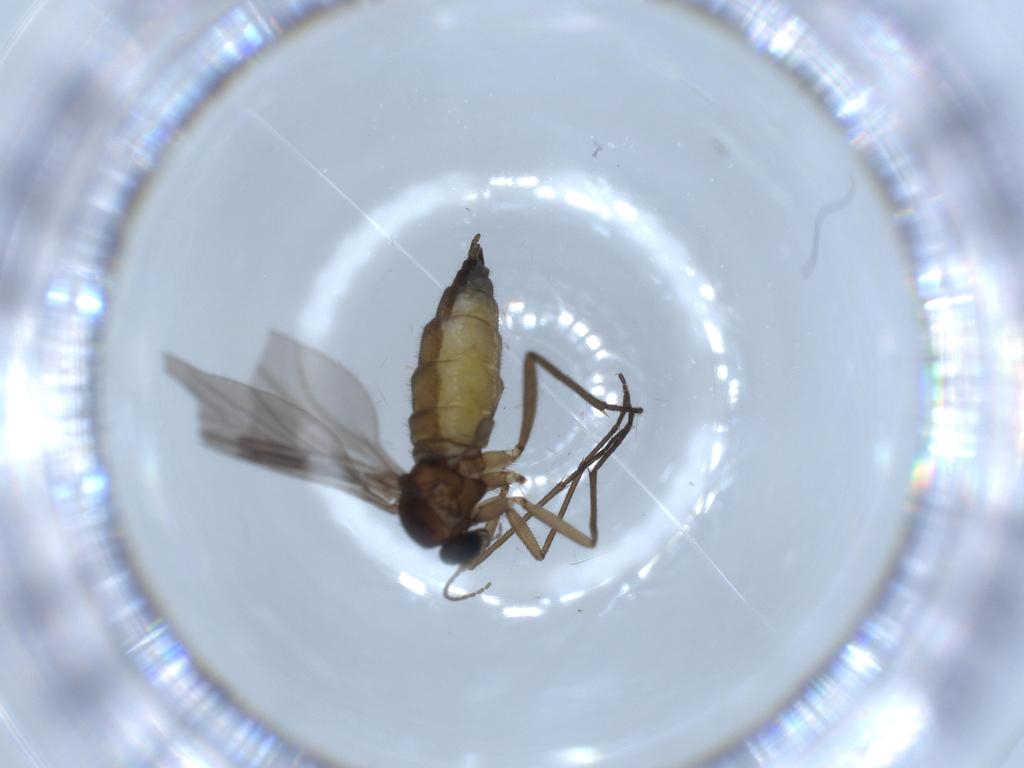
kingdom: Animalia
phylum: Arthropoda
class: Insecta
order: Diptera
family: Sciaridae
